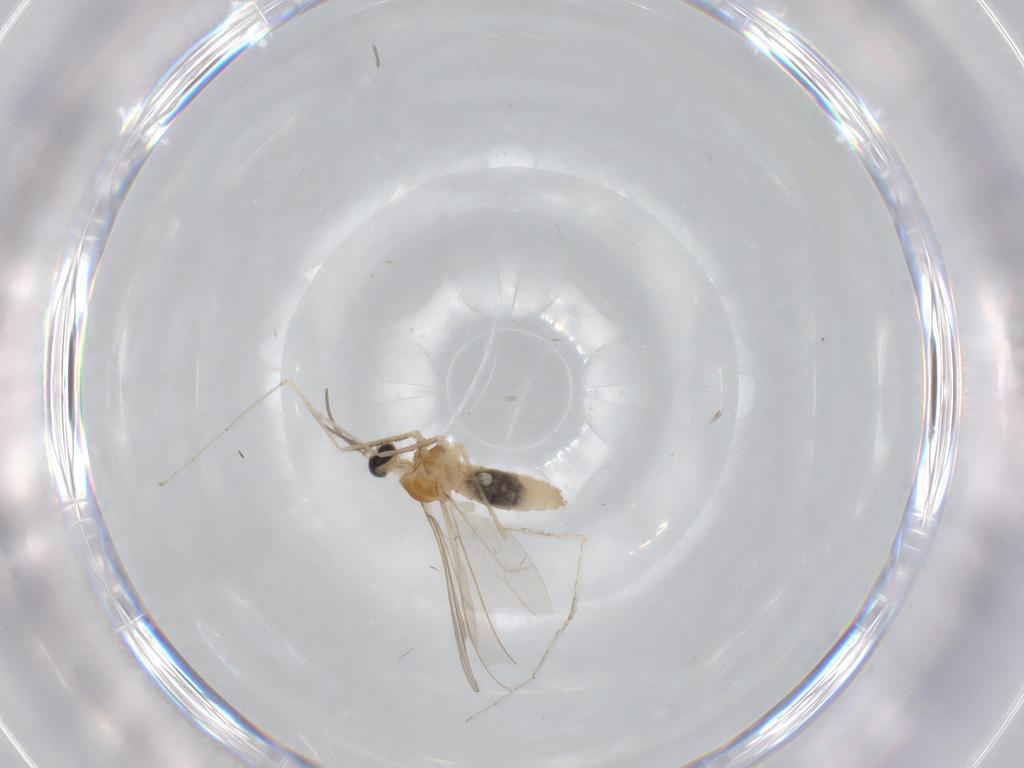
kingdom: Animalia
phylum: Arthropoda
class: Insecta
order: Diptera
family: Cecidomyiidae
